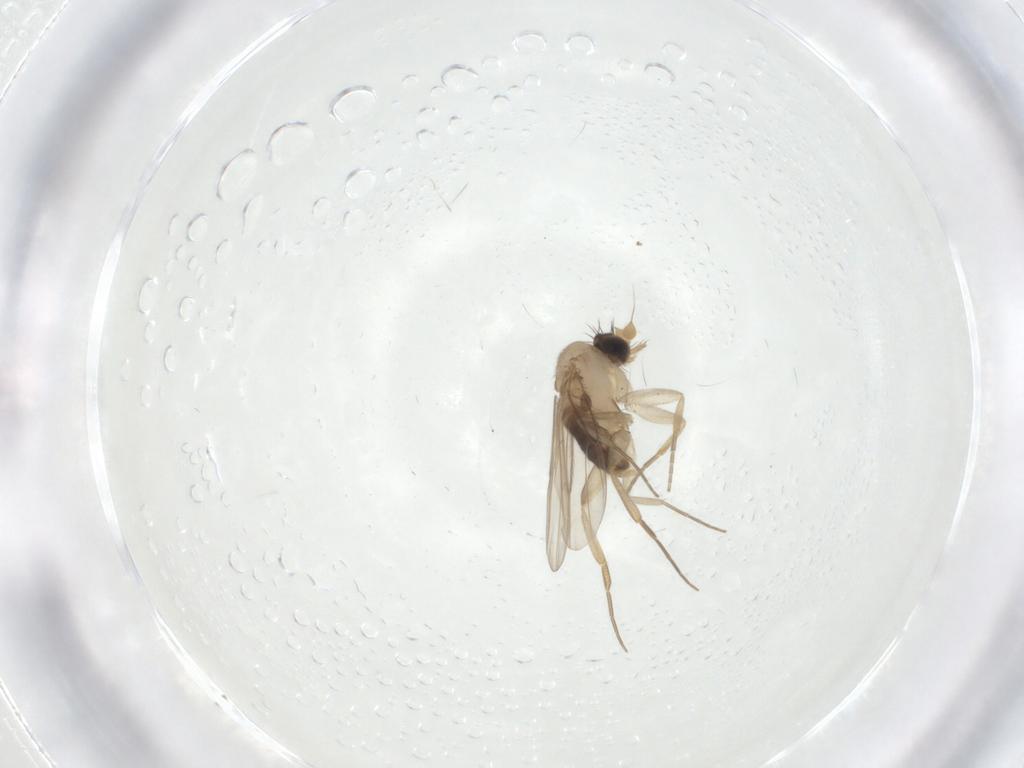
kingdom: Animalia
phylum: Arthropoda
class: Insecta
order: Diptera
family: Phoridae
